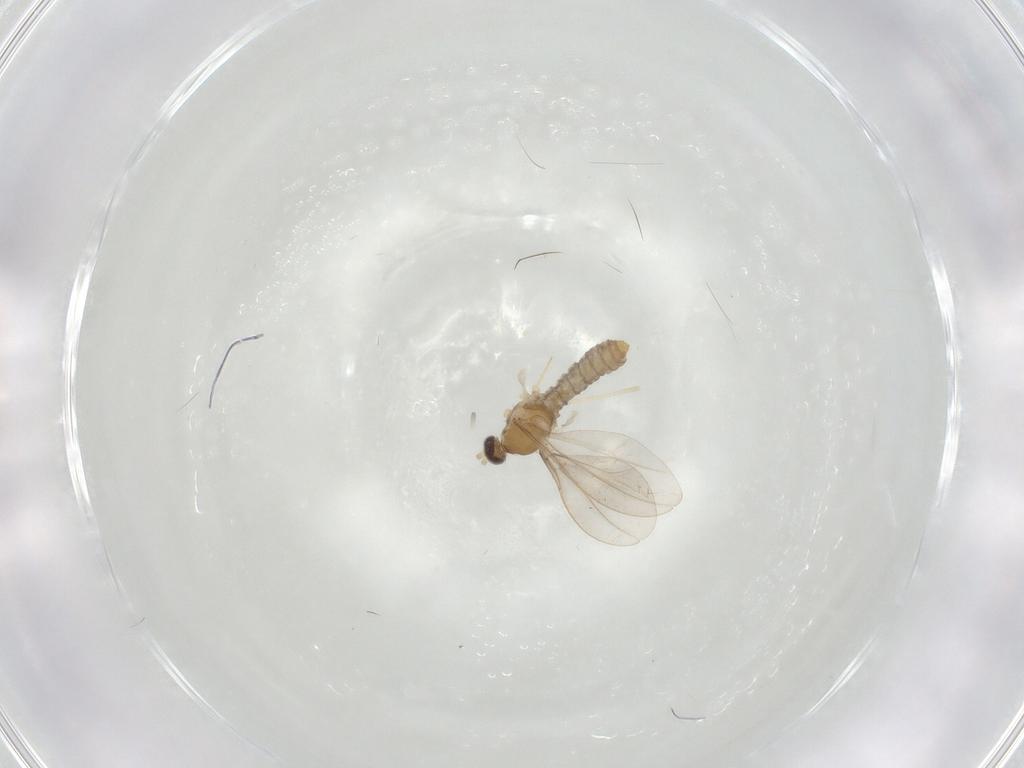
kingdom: Animalia
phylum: Arthropoda
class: Insecta
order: Diptera
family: Cecidomyiidae
